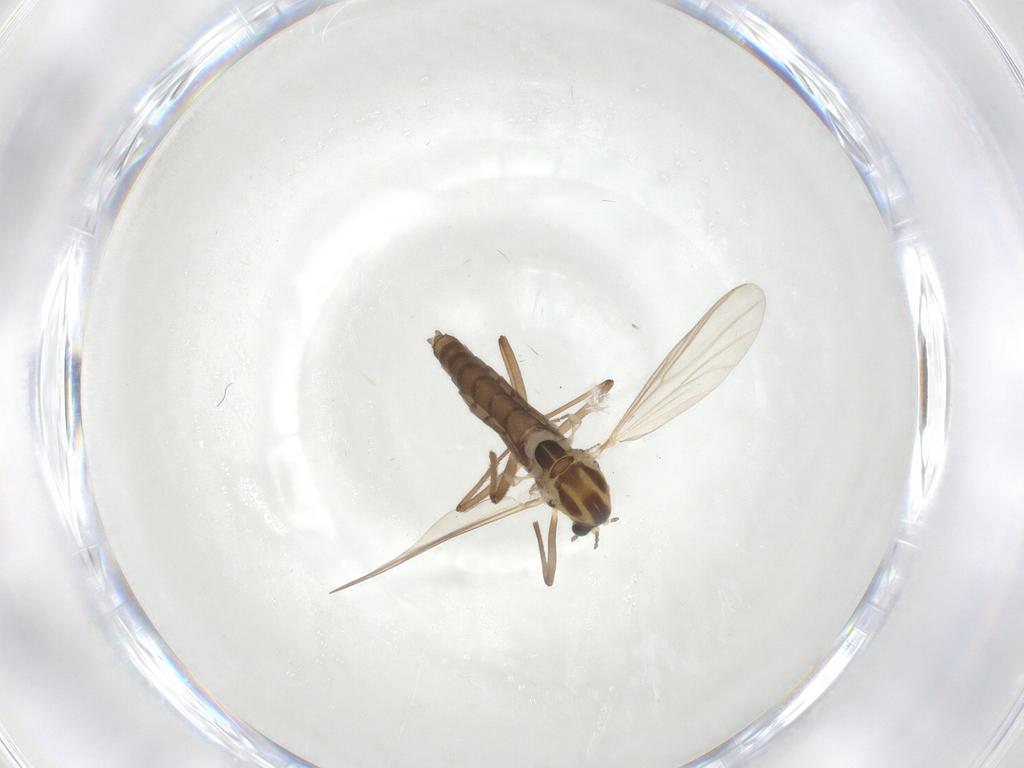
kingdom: Animalia
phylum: Arthropoda
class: Insecta
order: Diptera
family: Chironomidae
